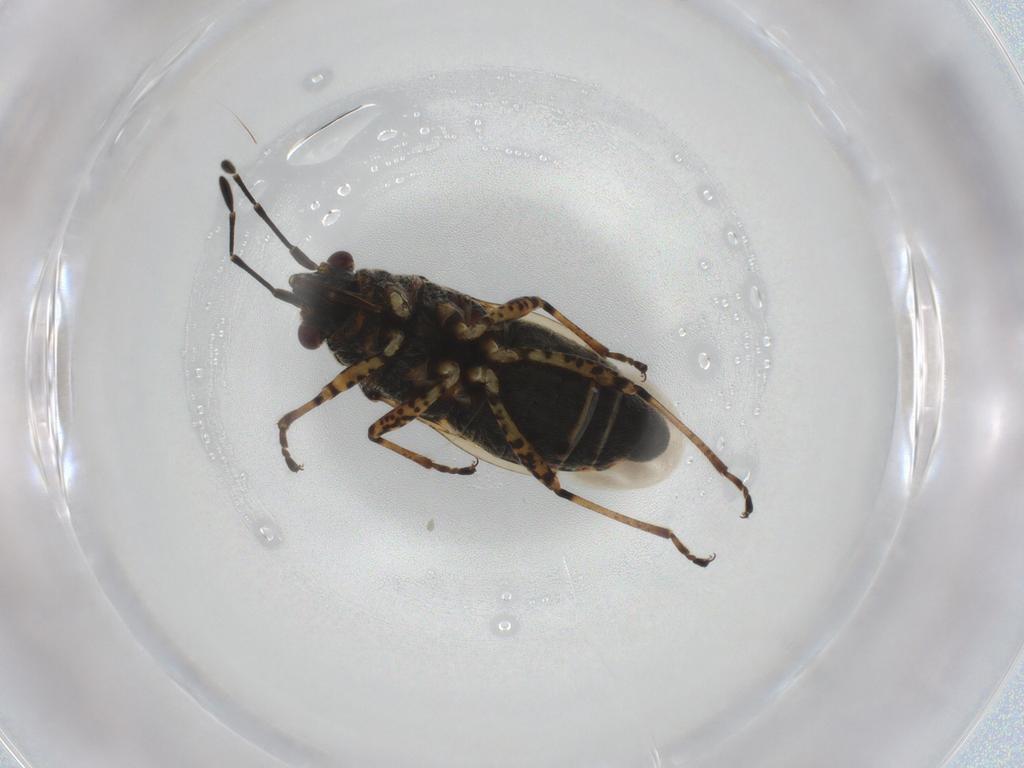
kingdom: Animalia
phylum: Arthropoda
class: Insecta
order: Hemiptera
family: Lygaeidae
